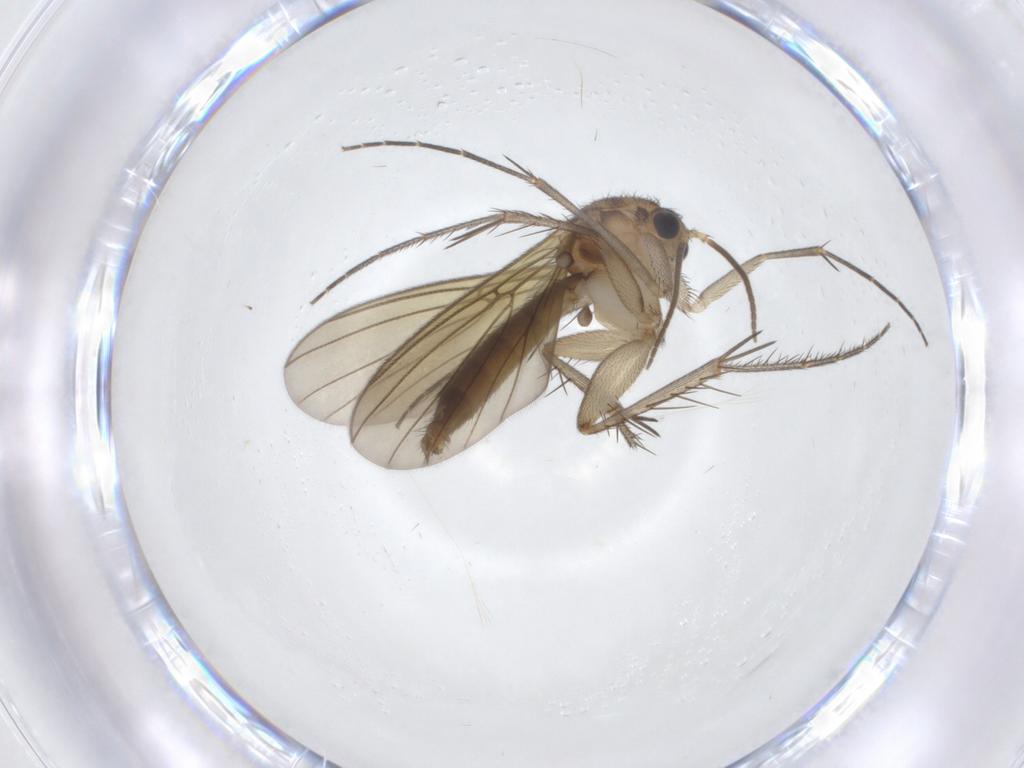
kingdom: Animalia
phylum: Arthropoda
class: Insecta
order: Diptera
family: Mycetophilidae
